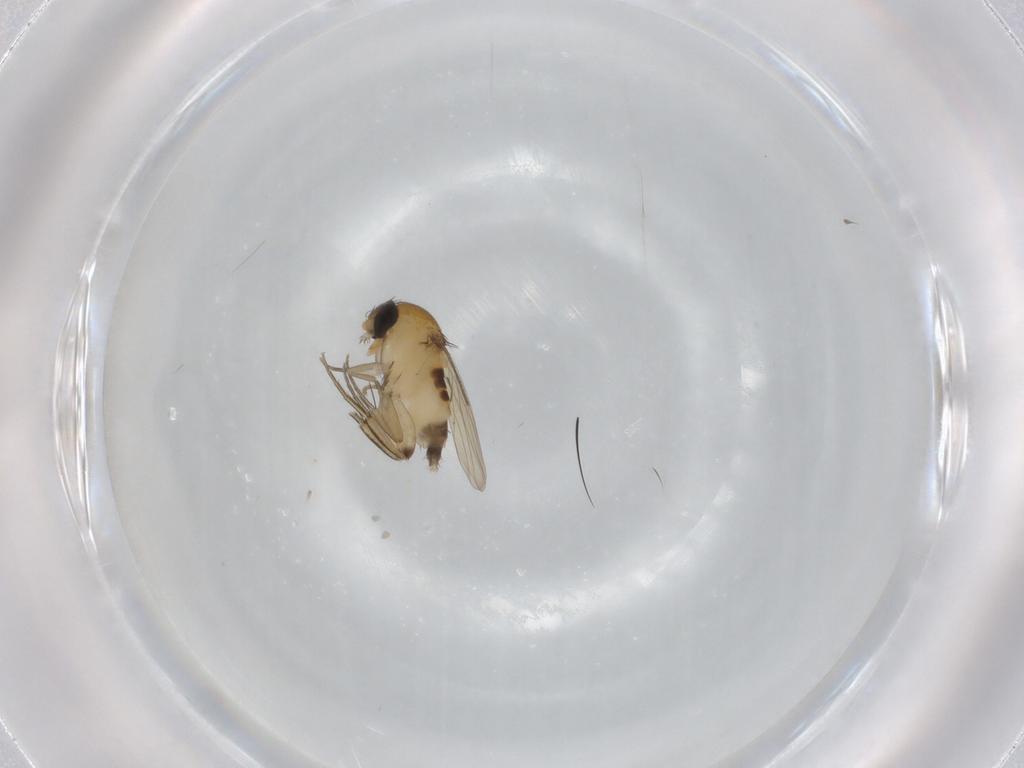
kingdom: Animalia
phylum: Arthropoda
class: Insecta
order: Diptera
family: Phoridae
